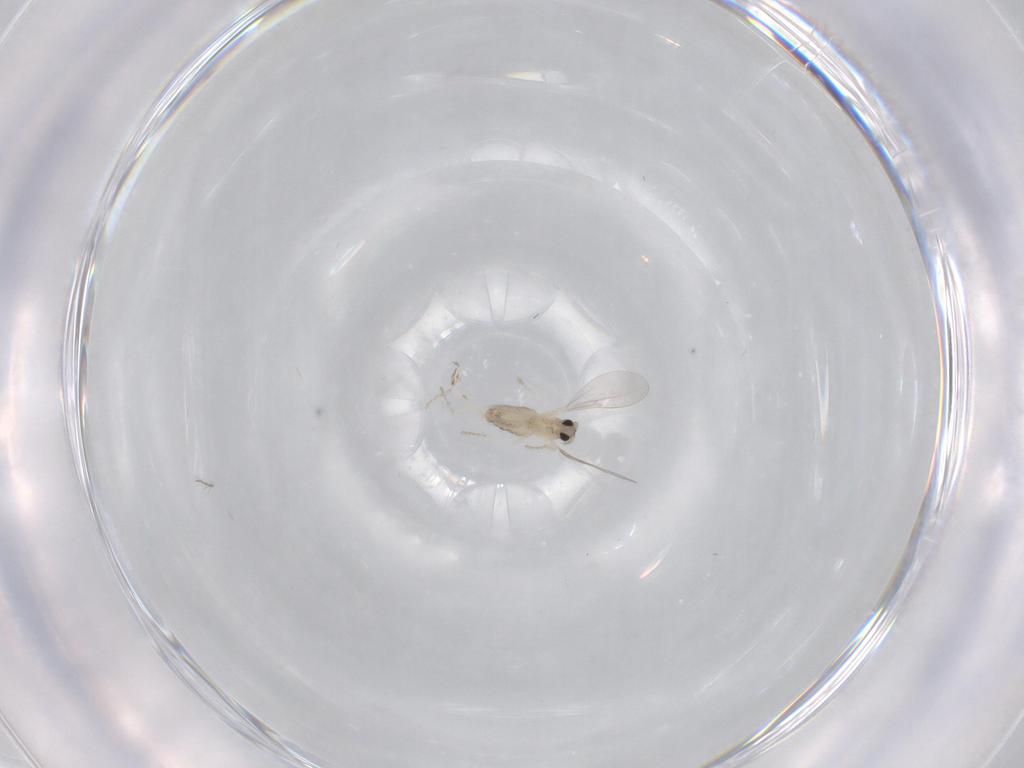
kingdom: Animalia
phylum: Arthropoda
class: Insecta
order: Diptera
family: Cecidomyiidae
